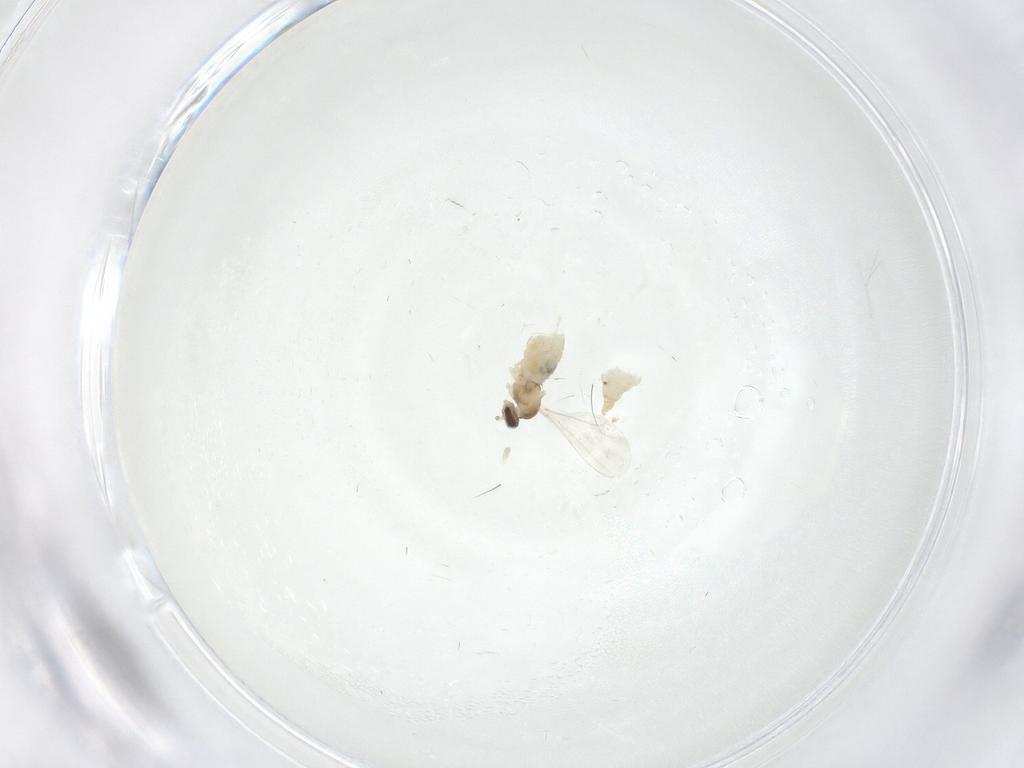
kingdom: Animalia
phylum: Arthropoda
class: Insecta
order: Diptera
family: Cecidomyiidae
